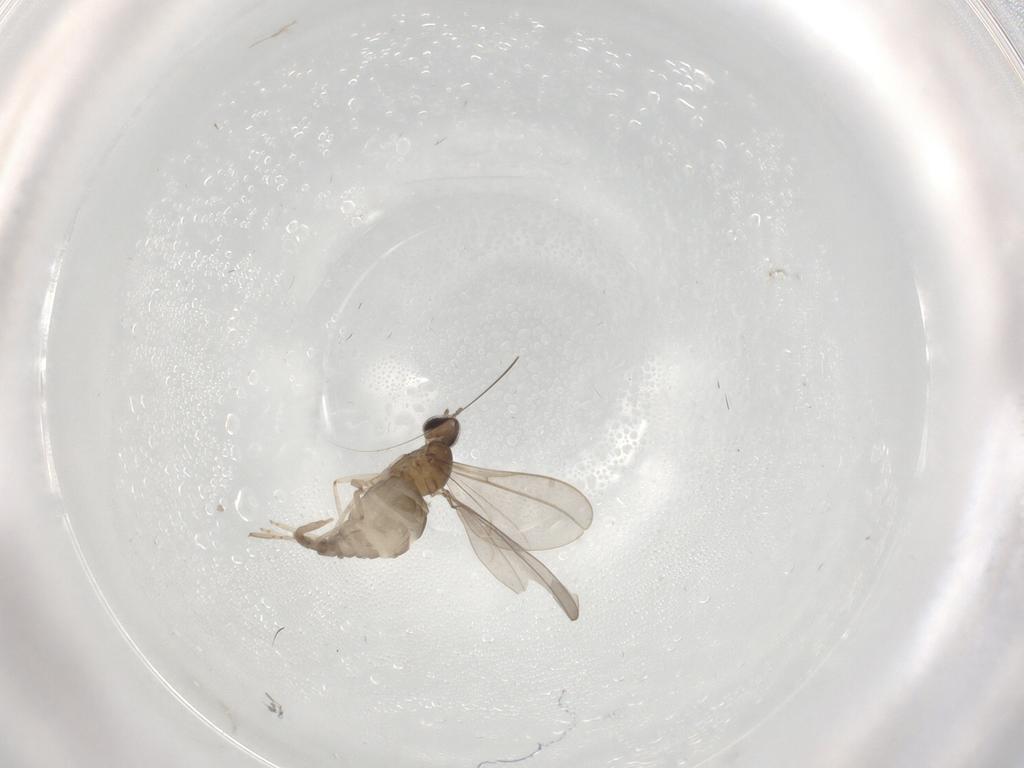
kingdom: Animalia
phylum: Arthropoda
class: Insecta
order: Diptera
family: Cecidomyiidae
